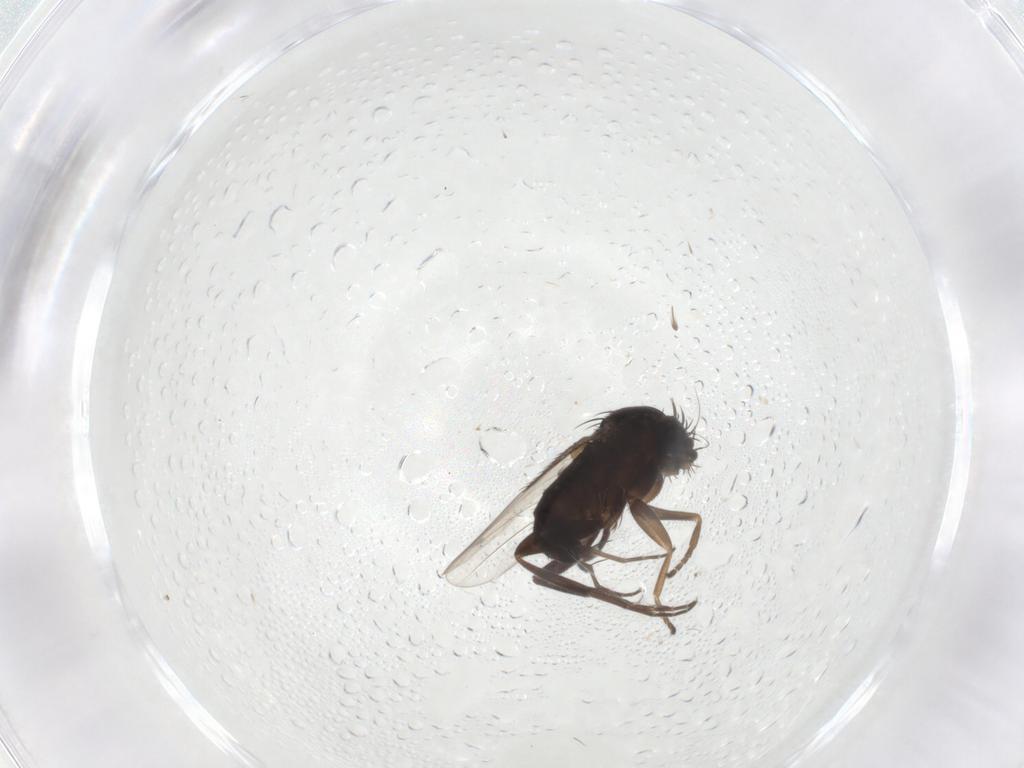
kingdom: Animalia
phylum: Arthropoda
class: Insecta
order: Diptera
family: Phoridae
